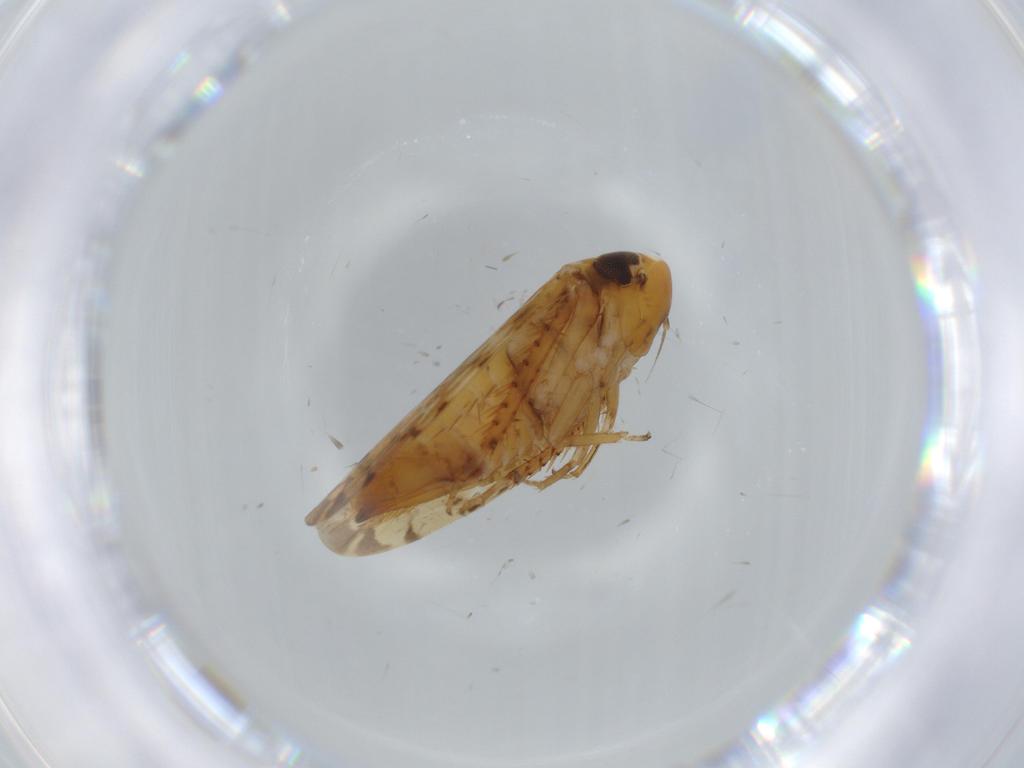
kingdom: Animalia
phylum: Arthropoda
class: Insecta
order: Hemiptera
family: Cicadellidae
